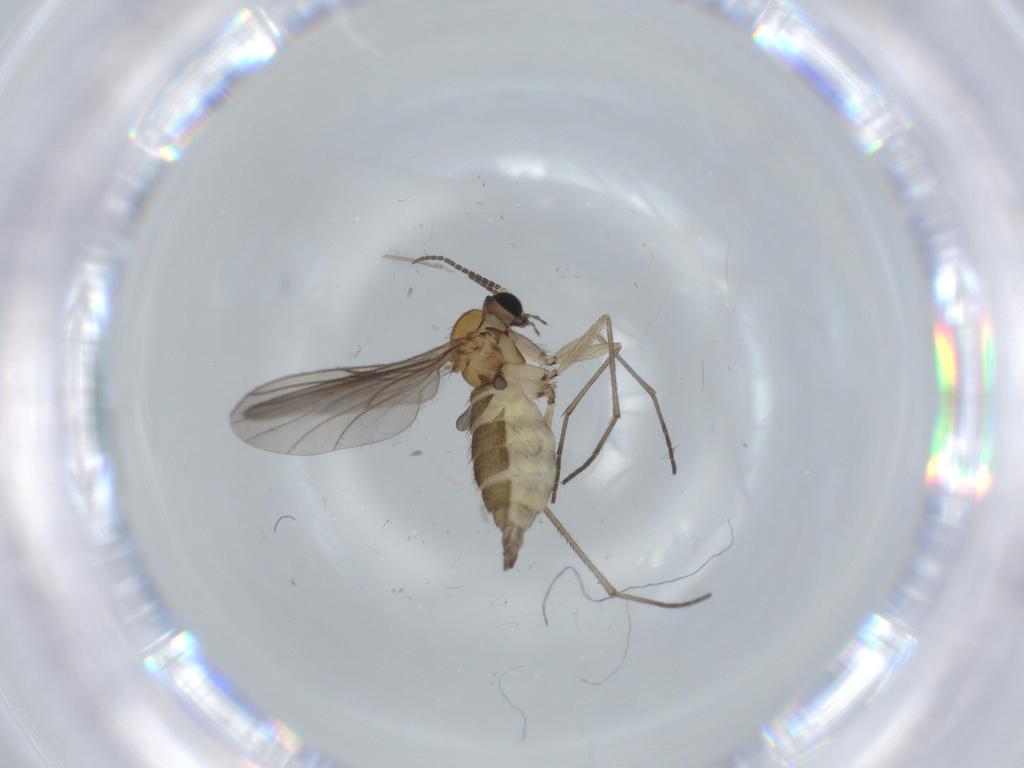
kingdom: Animalia
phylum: Arthropoda
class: Insecta
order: Diptera
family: Sciaridae
